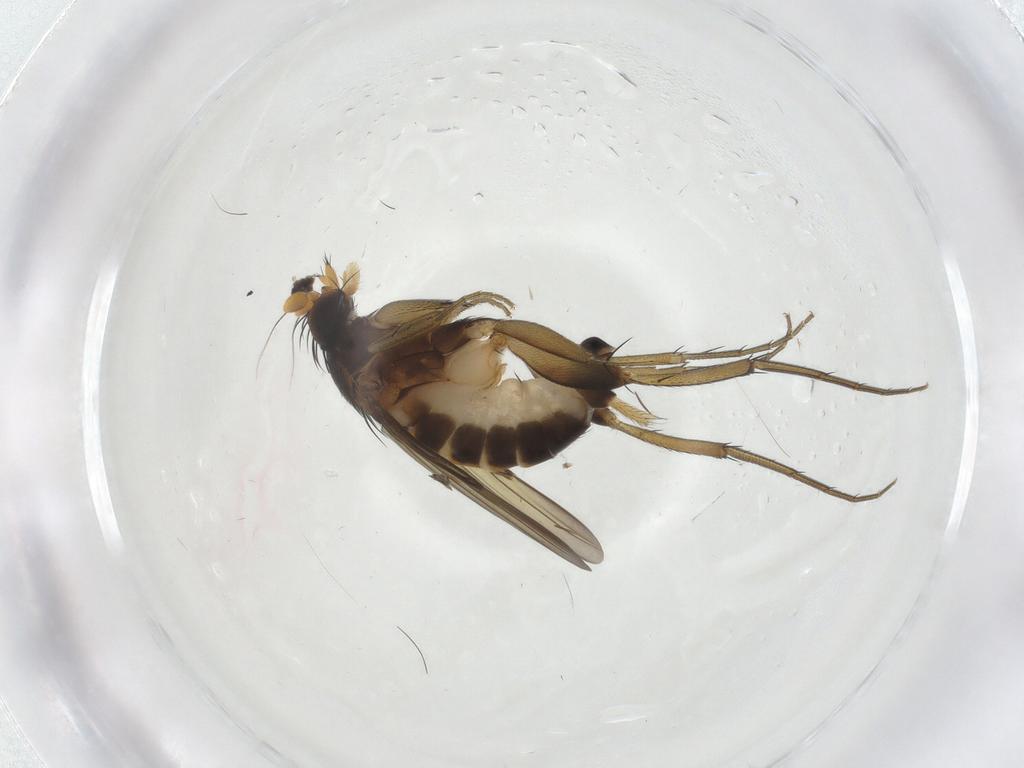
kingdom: Animalia
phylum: Arthropoda
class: Insecta
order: Diptera
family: Phoridae
